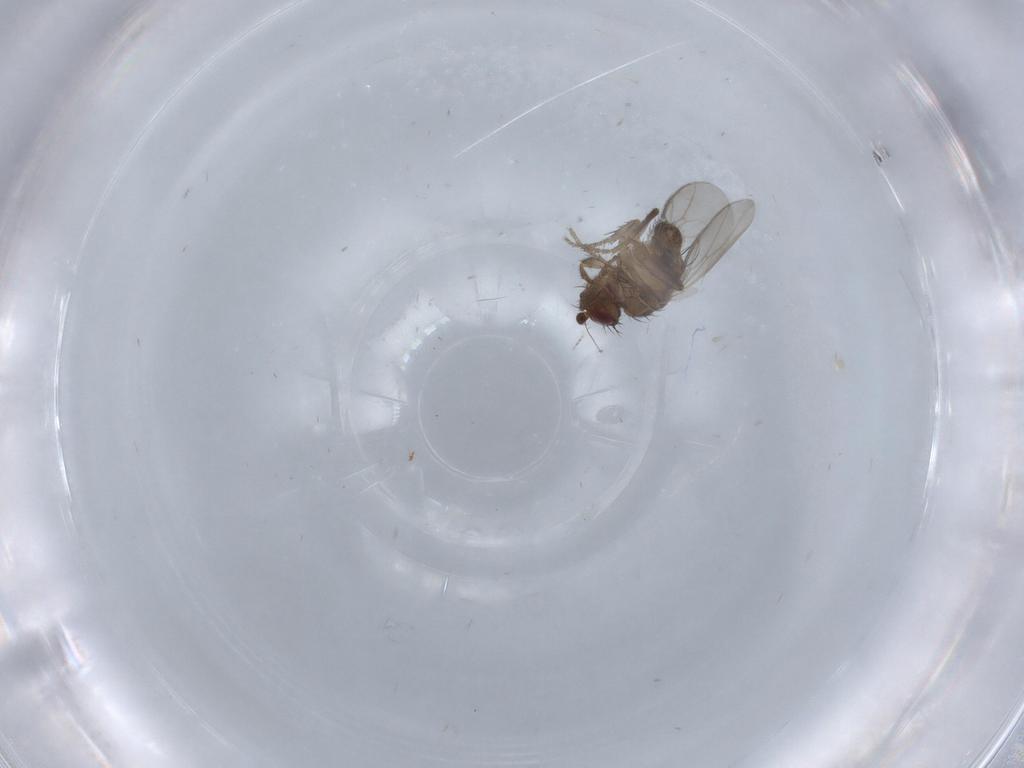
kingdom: Animalia
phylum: Arthropoda
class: Insecta
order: Diptera
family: Sphaeroceridae
